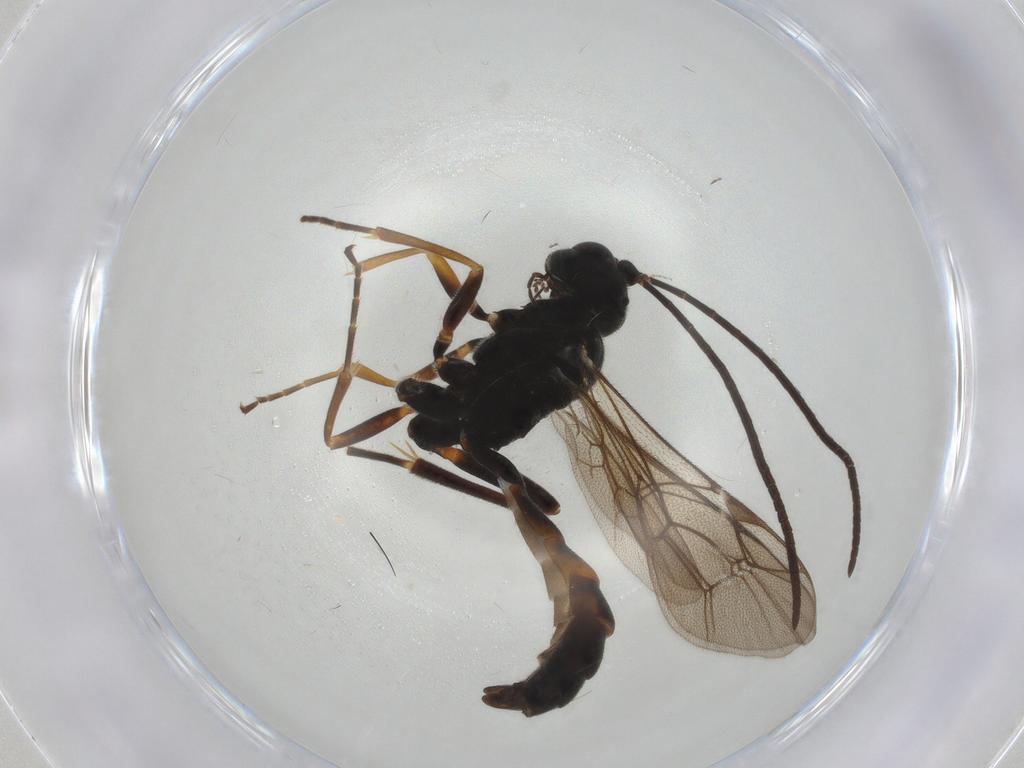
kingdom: Animalia
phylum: Arthropoda
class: Insecta
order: Hymenoptera
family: Ichneumonidae
